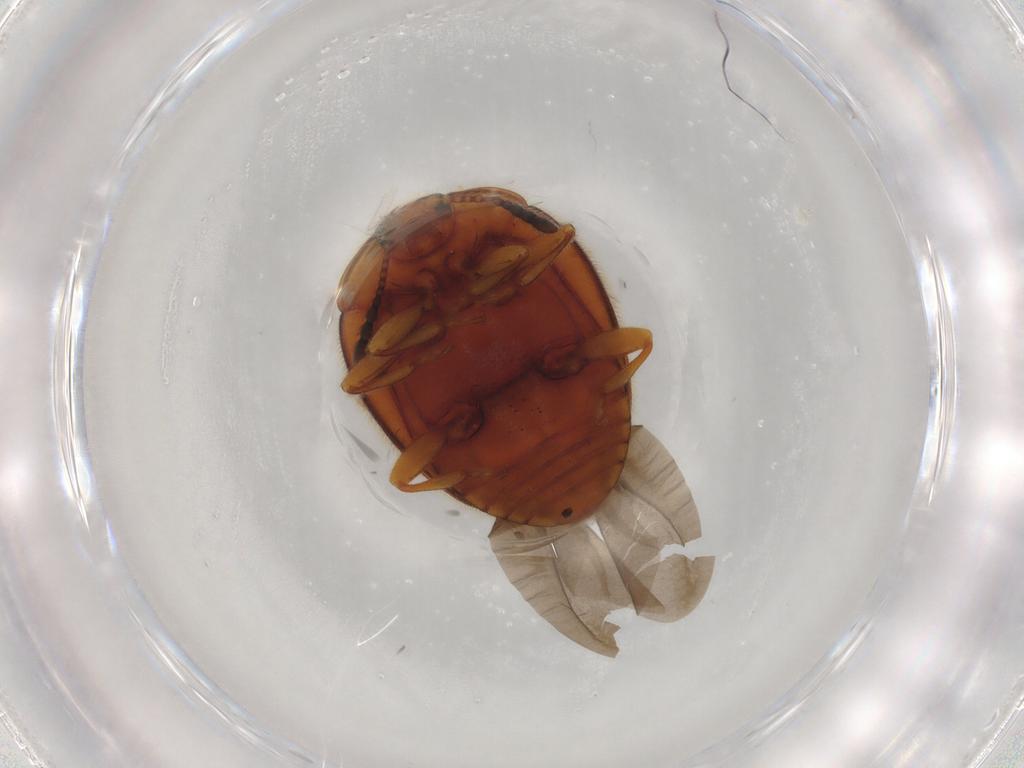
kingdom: Animalia
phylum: Arthropoda
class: Insecta
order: Coleoptera
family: Endomychidae
